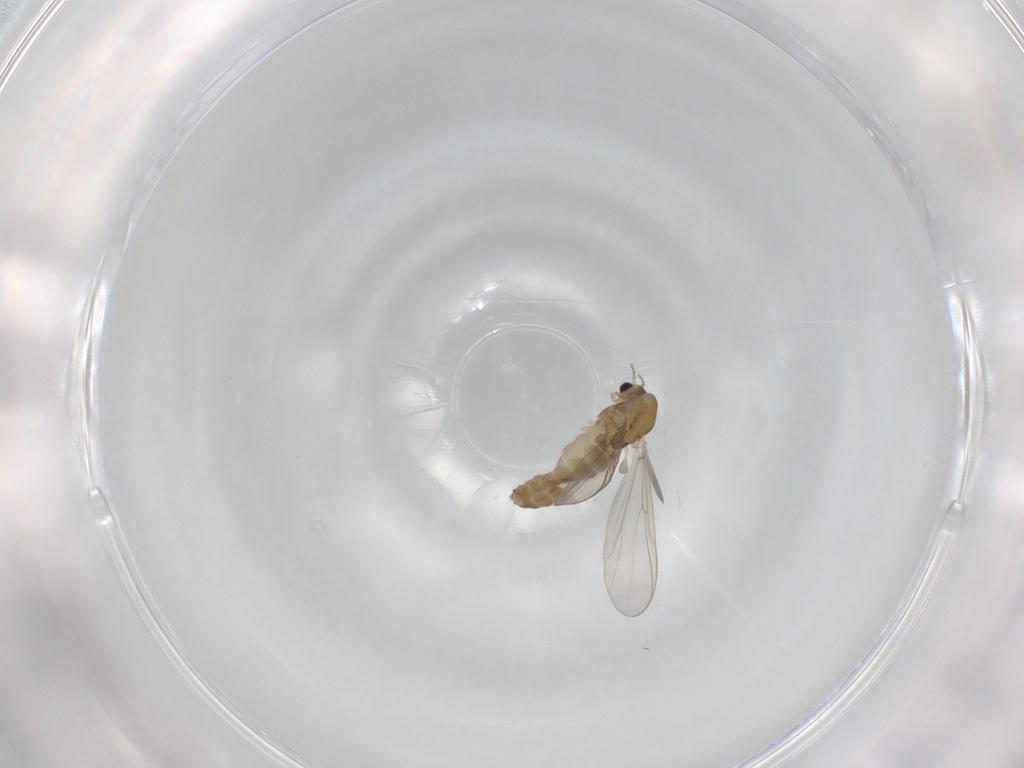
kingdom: Animalia
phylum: Arthropoda
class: Insecta
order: Diptera
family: Chironomidae
